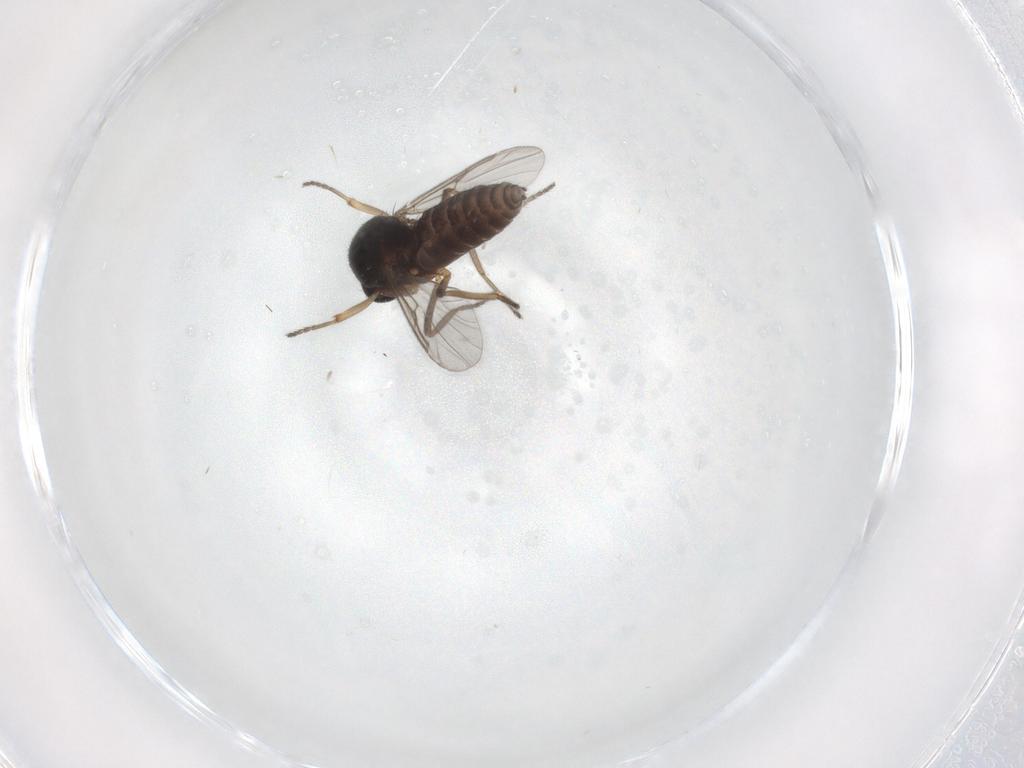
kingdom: Animalia
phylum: Arthropoda
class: Insecta
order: Diptera
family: Ceratopogonidae
